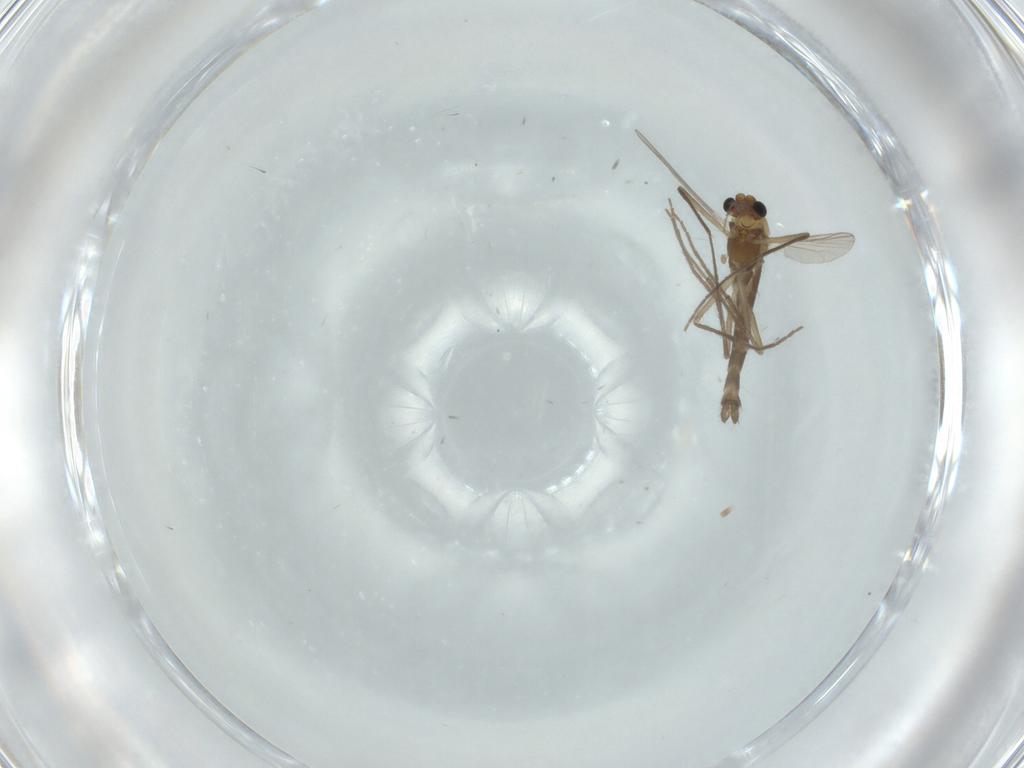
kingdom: Animalia
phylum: Arthropoda
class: Insecta
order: Diptera
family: Chironomidae
